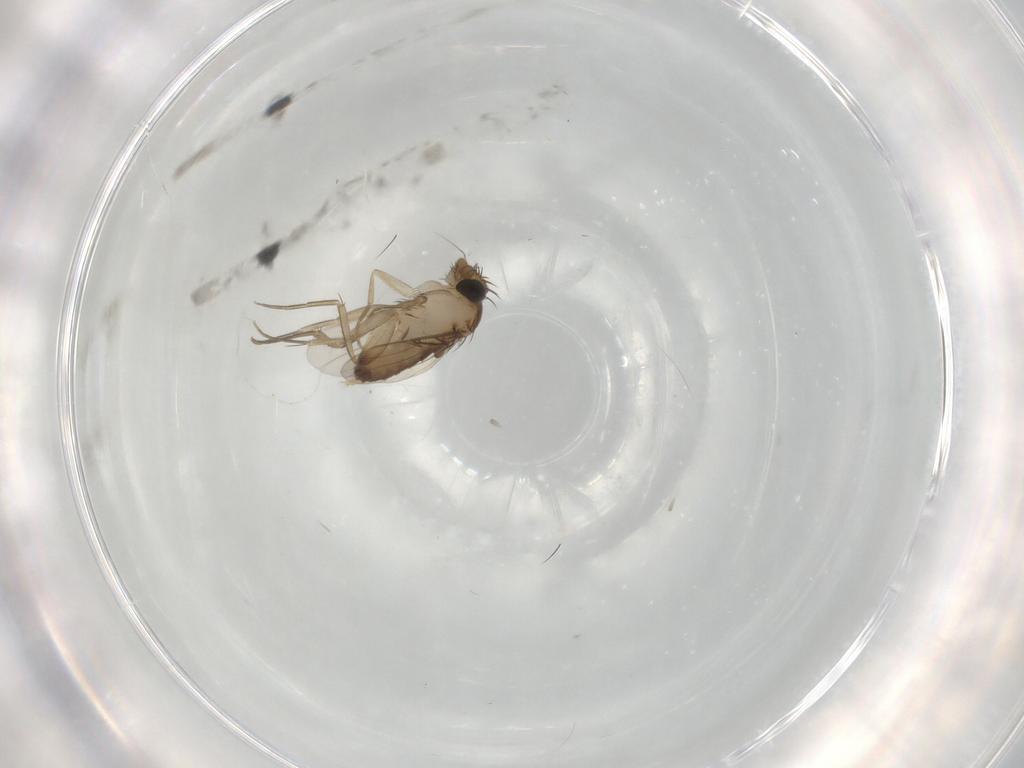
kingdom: Animalia
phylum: Arthropoda
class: Insecta
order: Diptera
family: Phoridae
